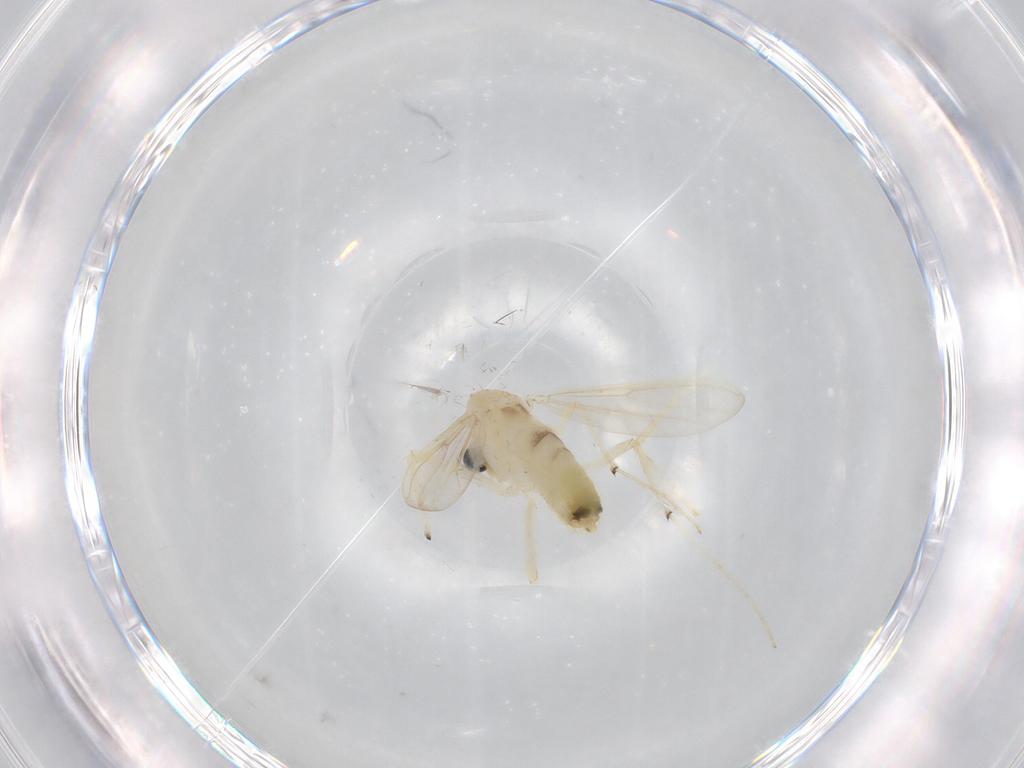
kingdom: Animalia
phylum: Arthropoda
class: Insecta
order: Diptera
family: Chironomidae
